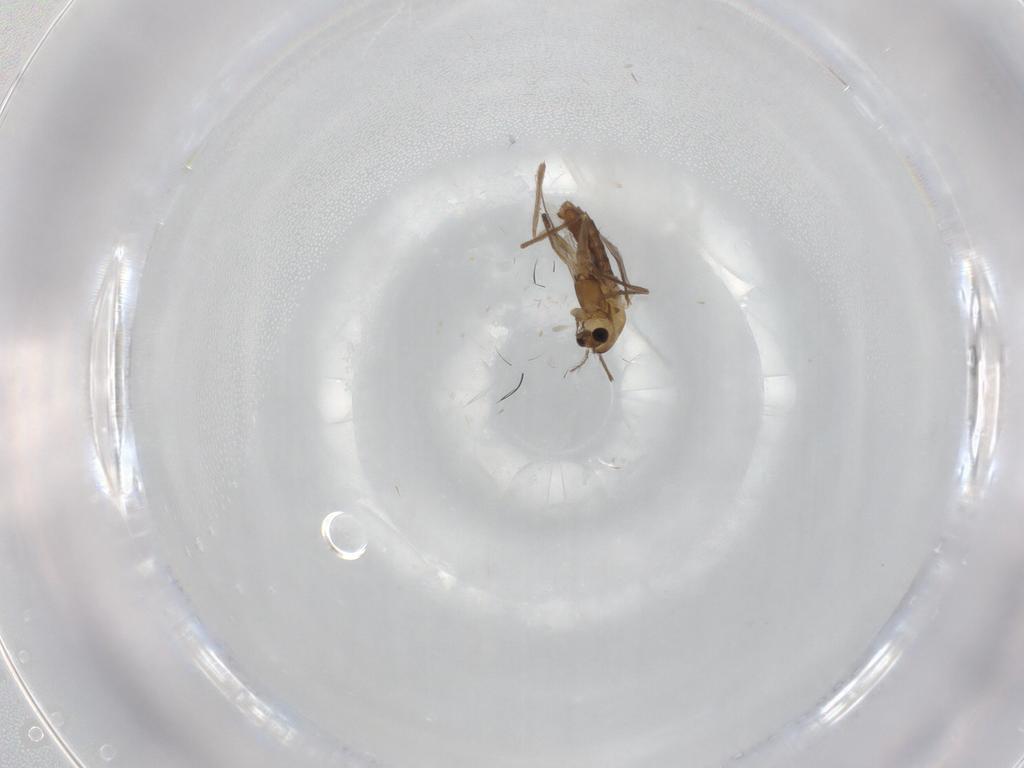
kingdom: Animalia
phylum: Arthropoda
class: Insecta
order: Diptera
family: Chironomidae
